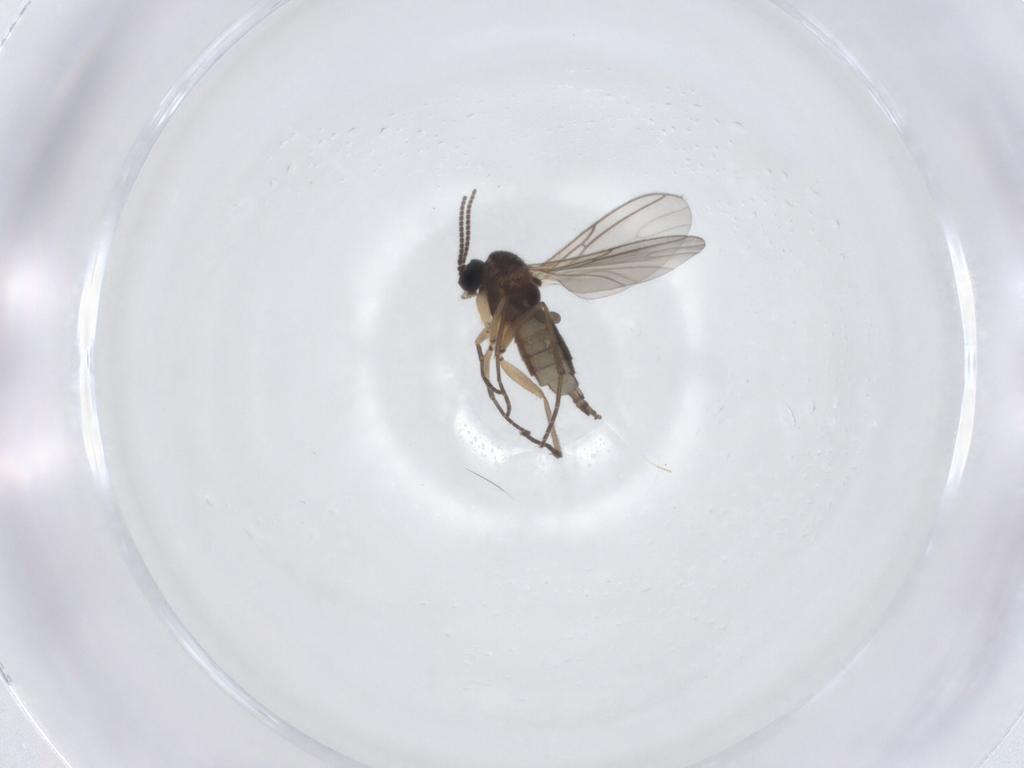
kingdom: Animalia
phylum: Arthropoda
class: Insecta
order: Diptera
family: Sciaridae
